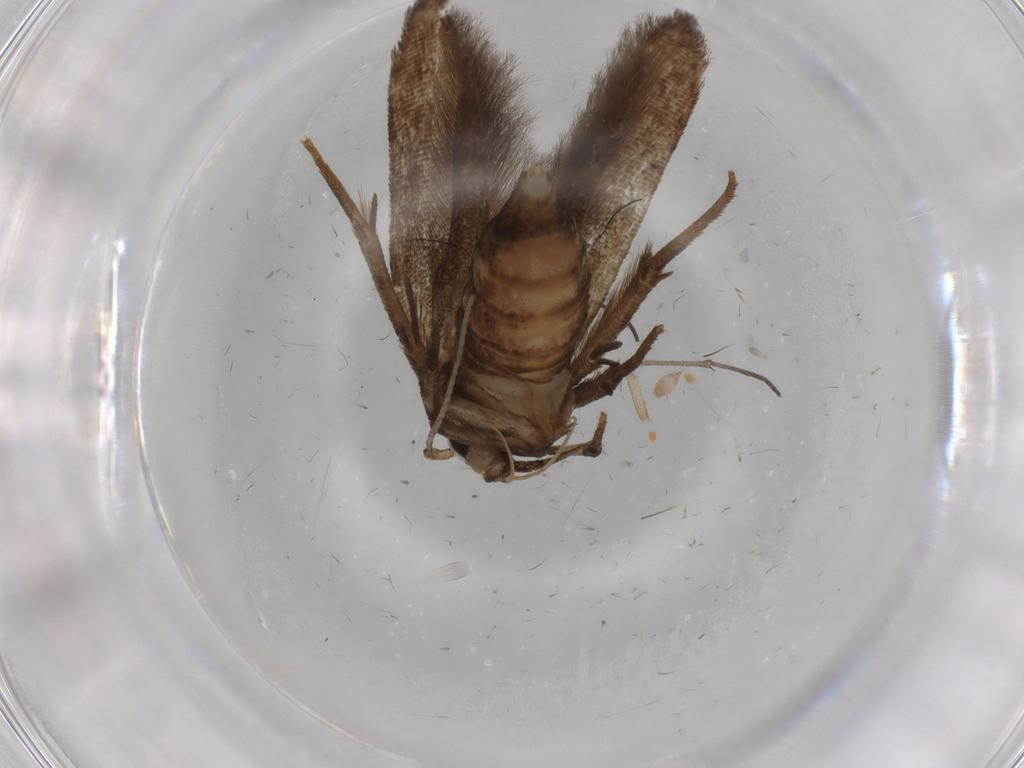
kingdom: Animalia
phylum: Arthropoda
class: Insecta
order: Lepidoptera
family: Autostichidae
